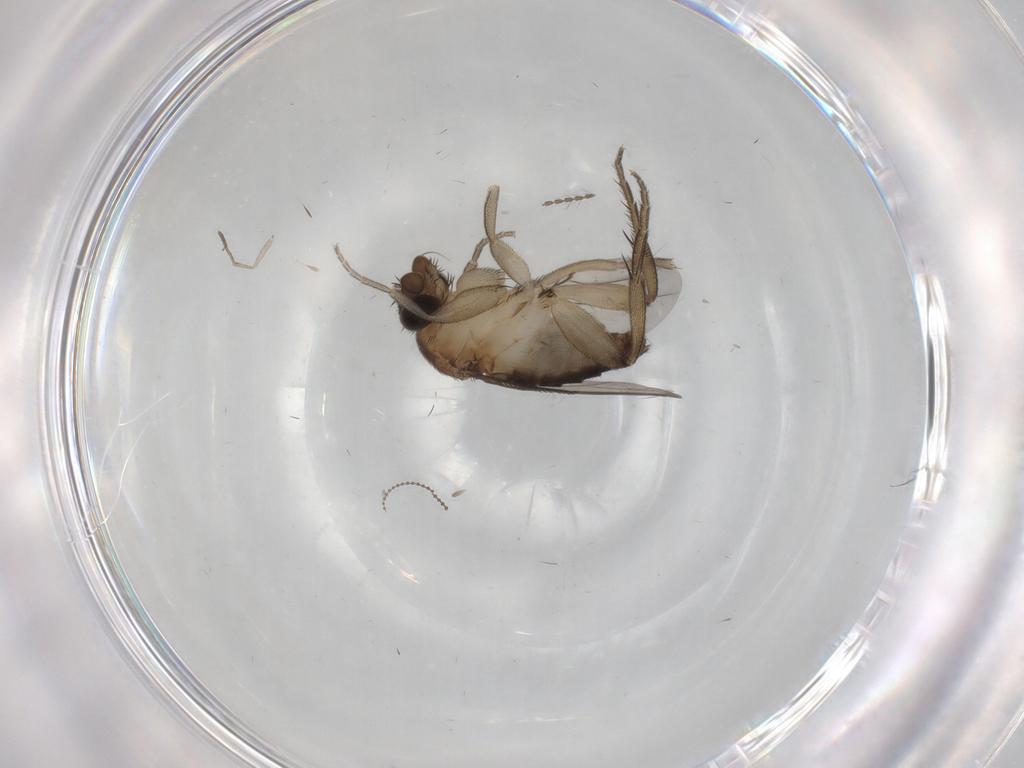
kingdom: Animalia
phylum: Arthropoda
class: Insecta
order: Diptera
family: Phoridae
